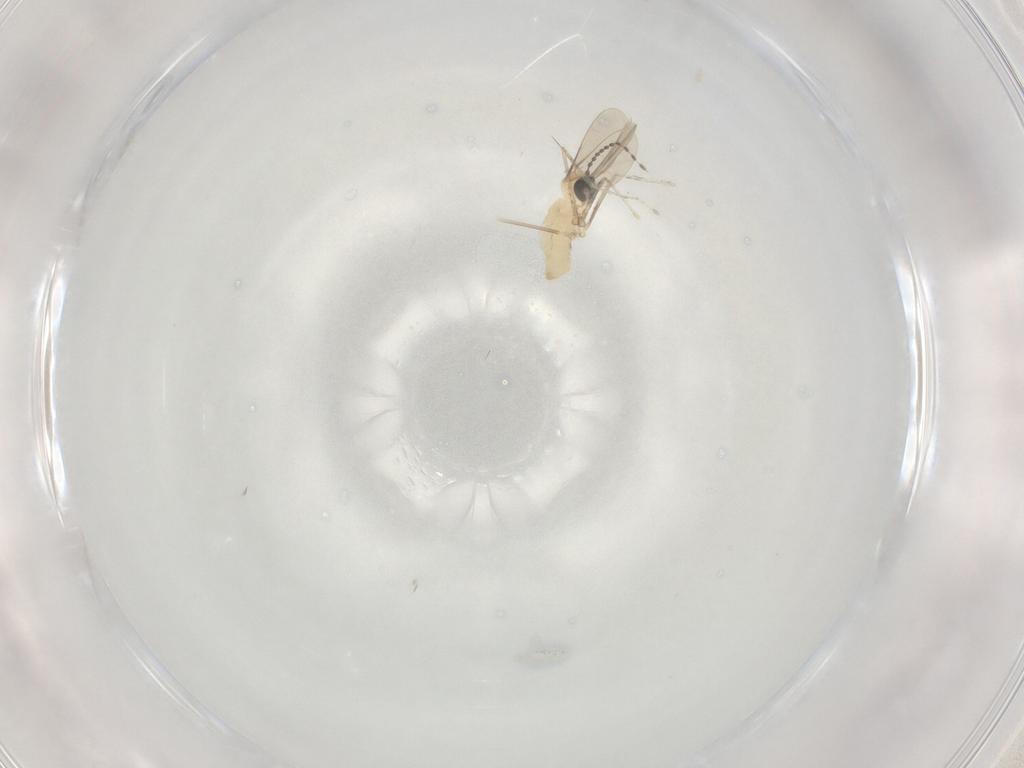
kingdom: Animalia
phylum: Arthropoda
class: Insecta
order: Diptera
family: Cecidomyiidae
